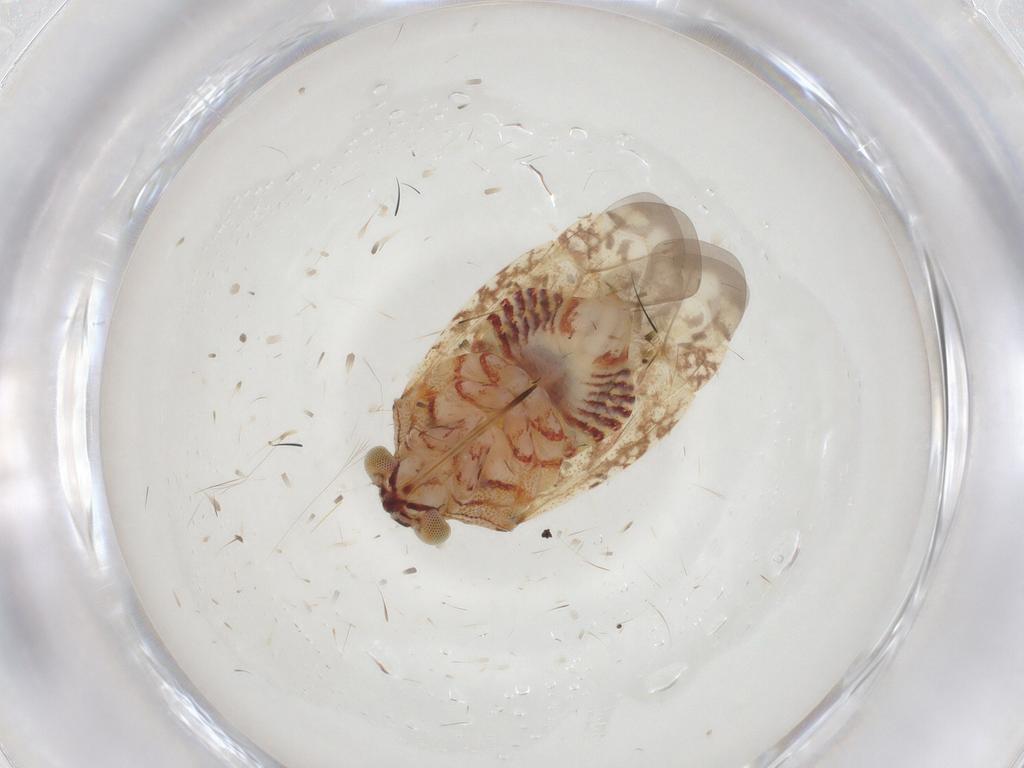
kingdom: Animalia
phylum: Arthropoda
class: Insecta
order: Hemiptera
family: Miridae
